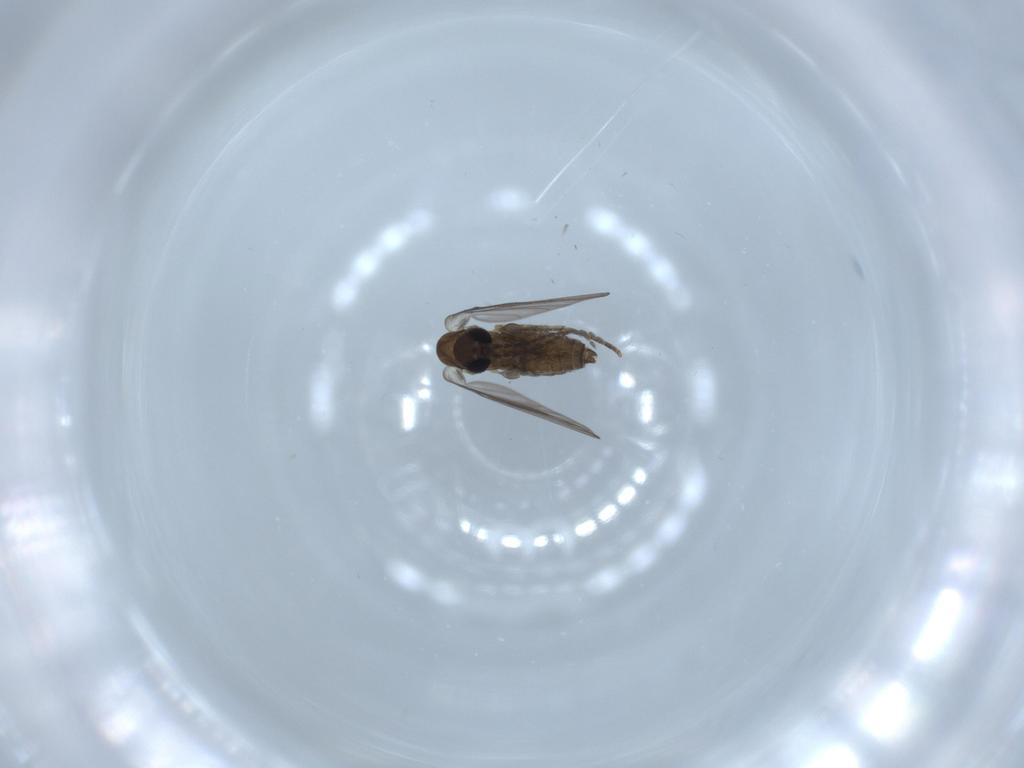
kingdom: Animalia
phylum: Arthropoda
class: Insecta
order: Diptera
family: Psychodidae
